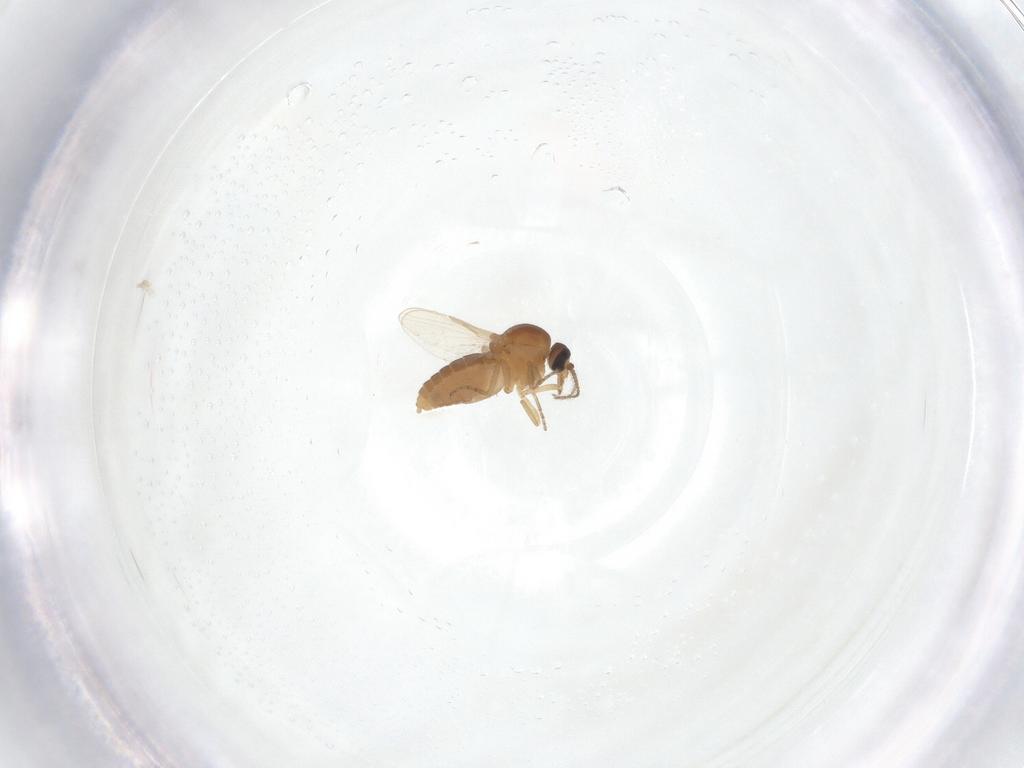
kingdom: Animalia
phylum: Arthropoda
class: Insecta
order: Diptera
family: Ceratopogonidae
